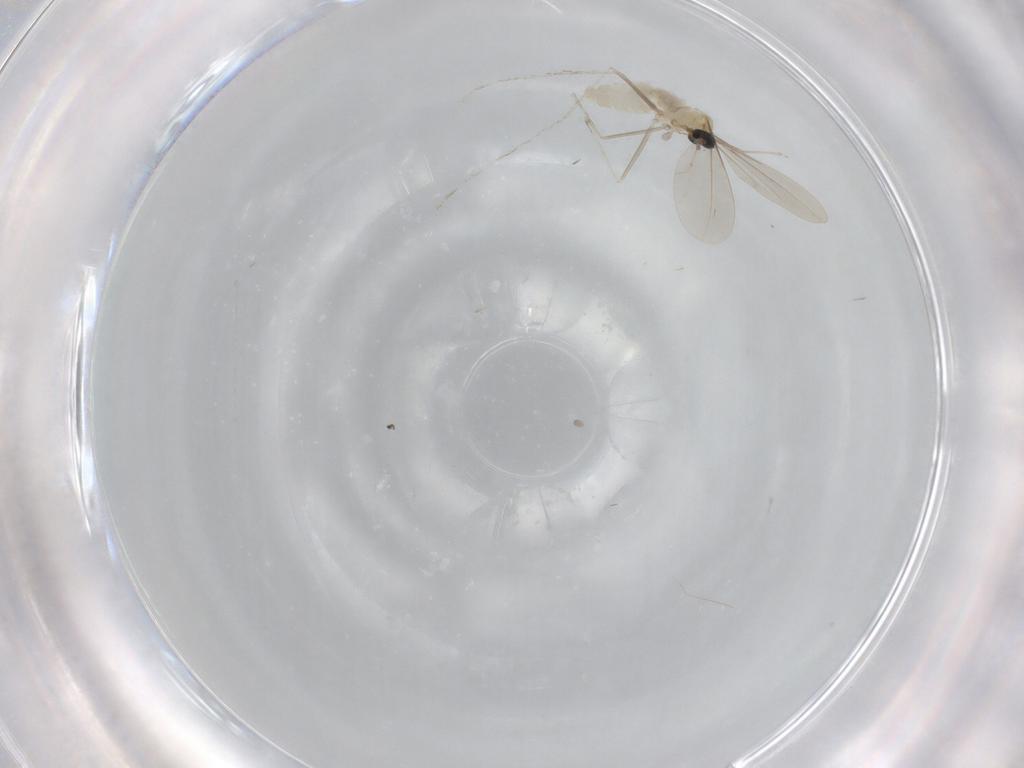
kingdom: Animalia
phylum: Arthropoda
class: Insecta
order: Diptera
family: Cecidomyiidae
